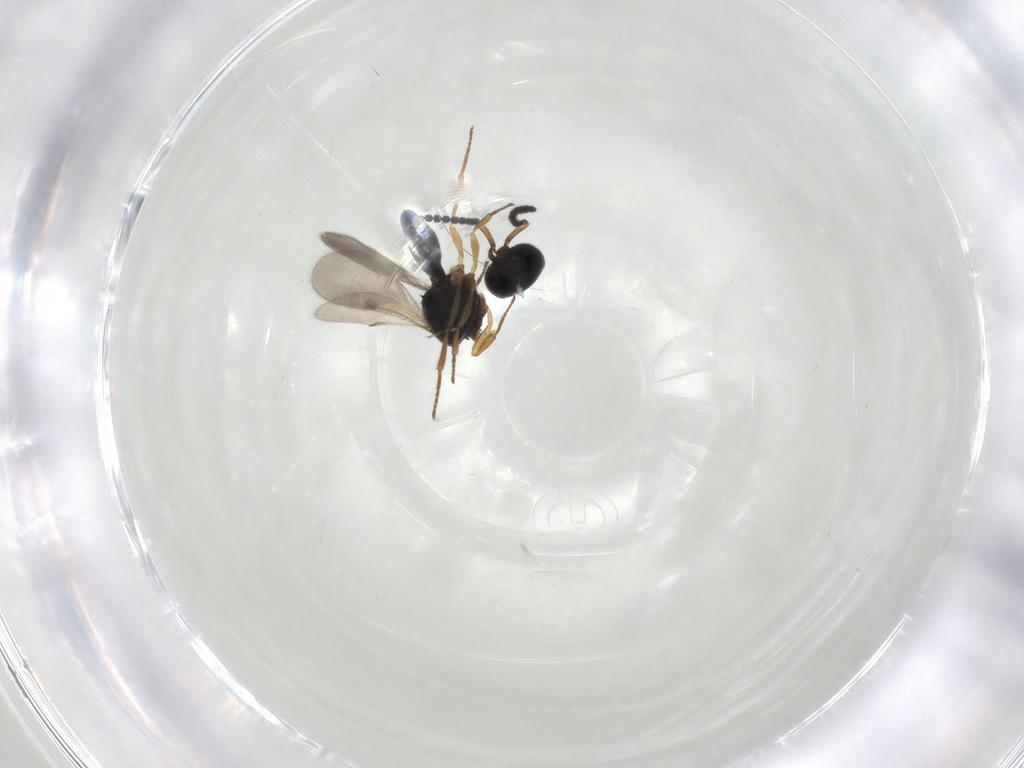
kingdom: Animalia
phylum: Arthropoda
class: Insecta
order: Hymenoptera
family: Scelionidae
